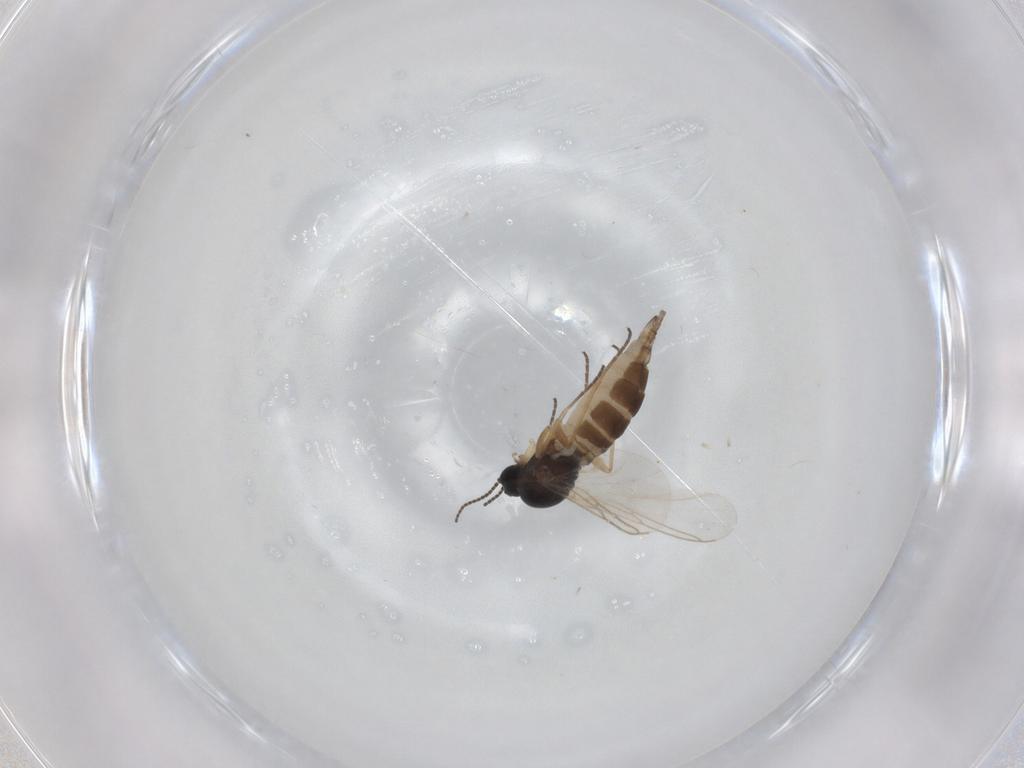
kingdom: Animalia
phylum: Arthropoda
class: Insecta
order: Diptera
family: Sciaridae
